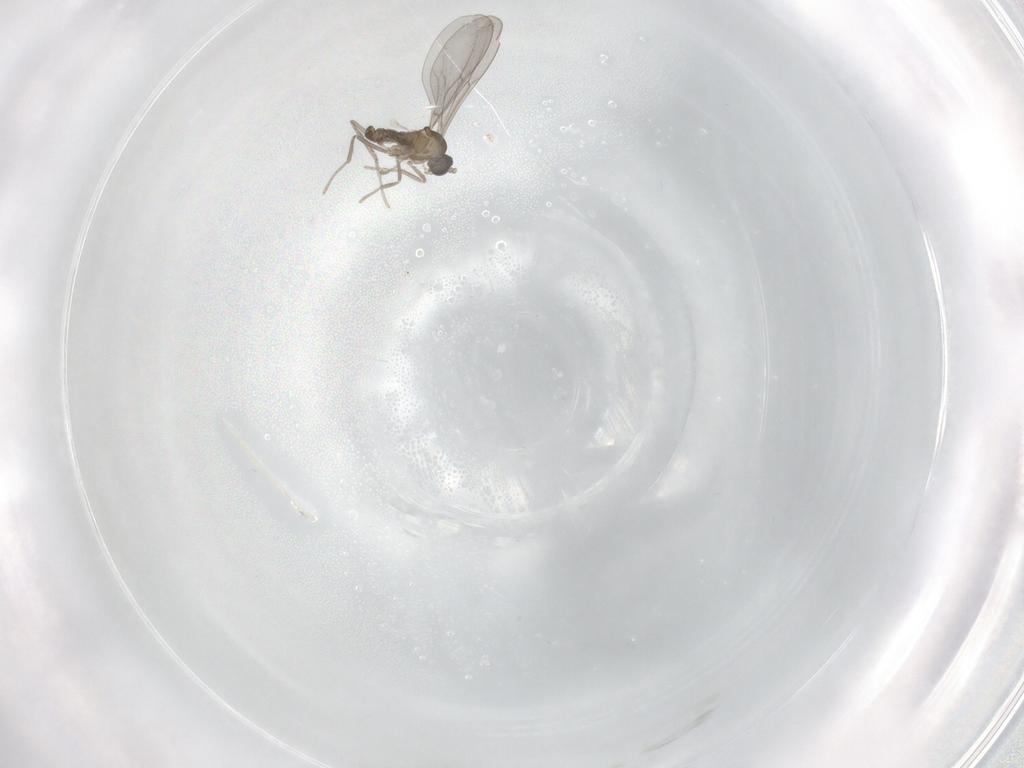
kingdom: Animalia
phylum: Arthropoda
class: Insecta
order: Diptera
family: Cecidomyiidae
